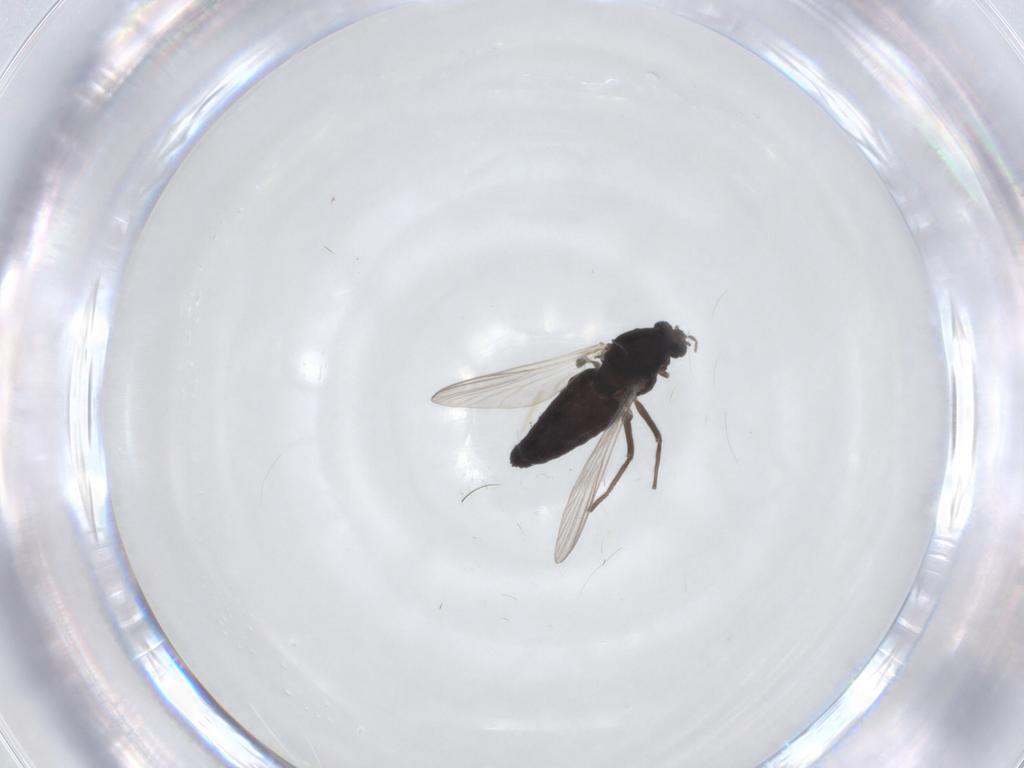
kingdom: Animalia
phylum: Arthropoda
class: Insecta
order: Diptera
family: Chironomidae
